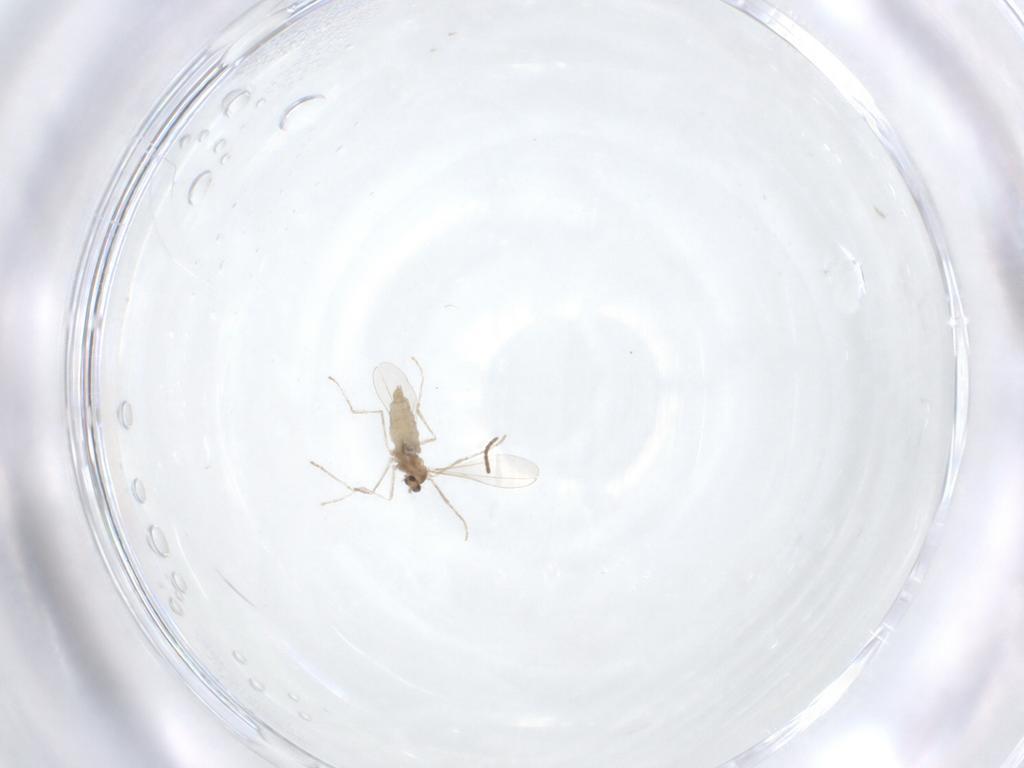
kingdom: Animalia
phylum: Arthropoda
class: Insecta
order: Diptera
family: Cecidomyiidae
